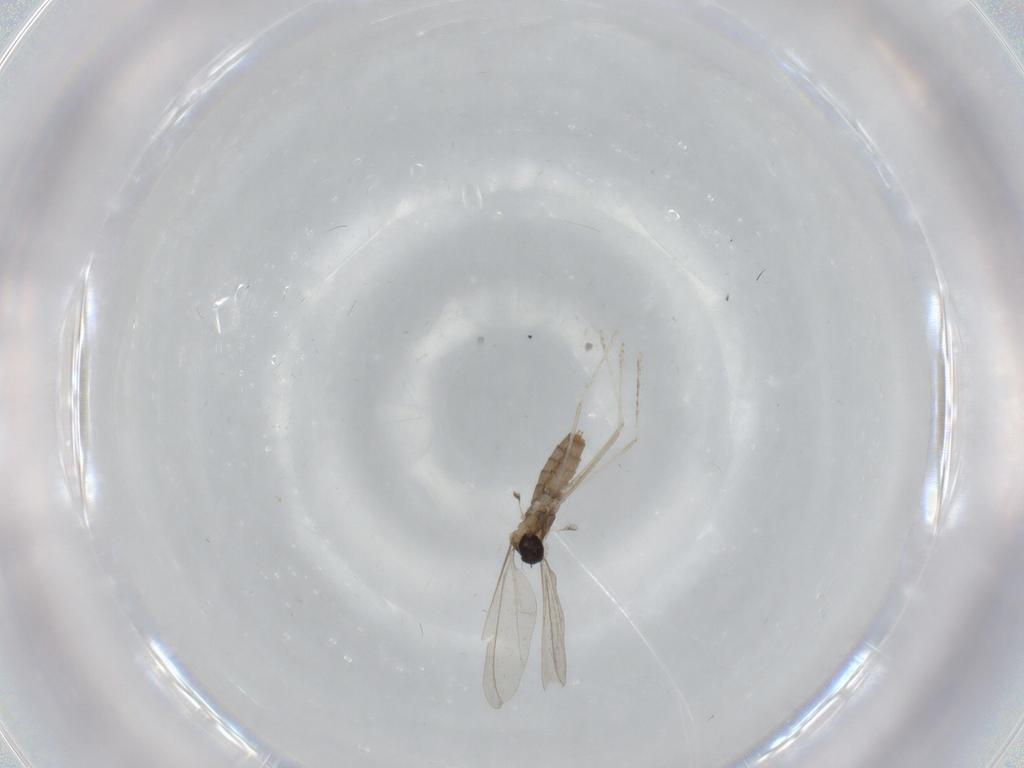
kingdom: Animalia
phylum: Arthropoda
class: Insecta
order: Diptera
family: Cecidomyiidae
